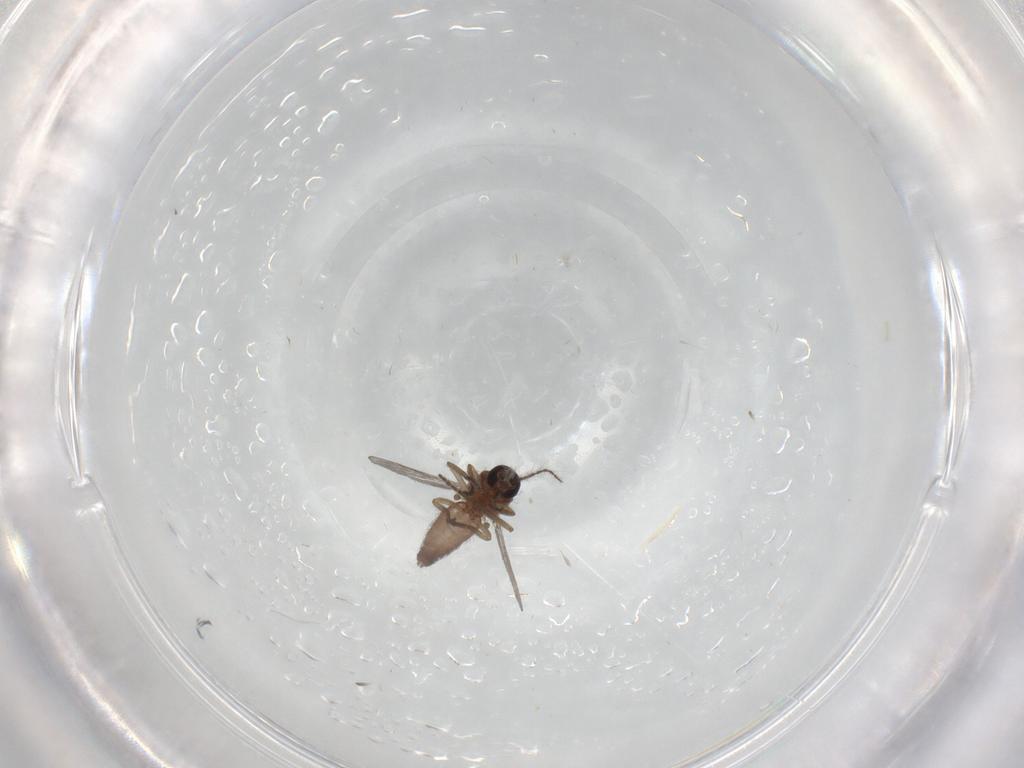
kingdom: Animalia
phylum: Arthropoda
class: Insecta
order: Diptera
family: Ceratopogonidae
